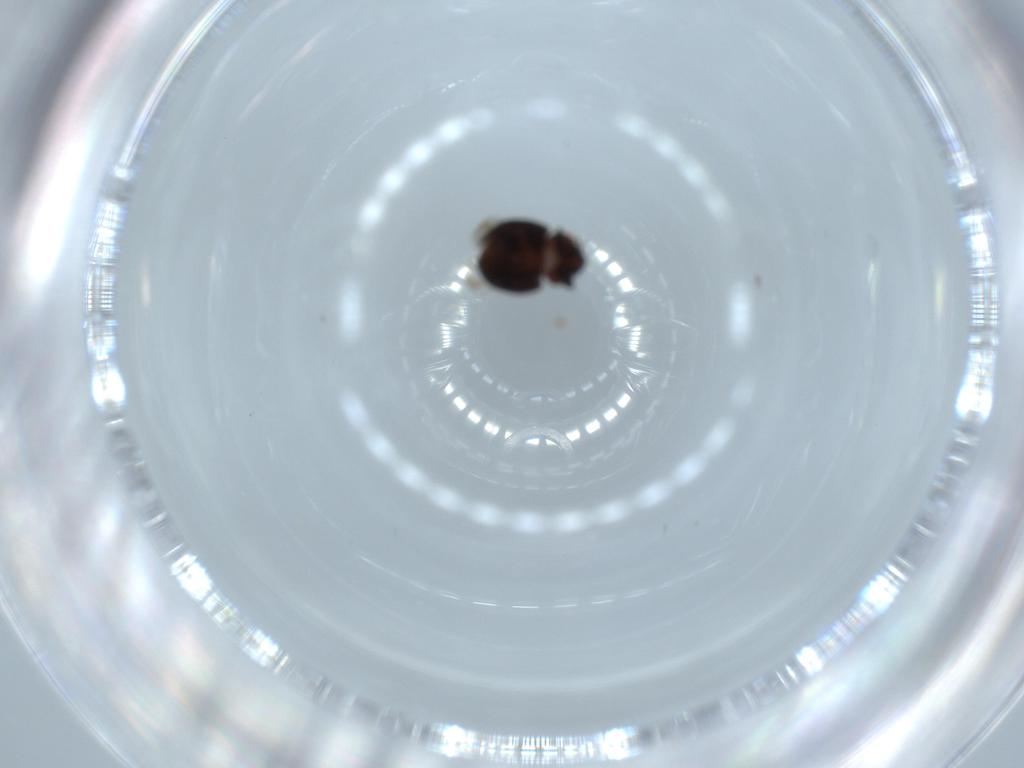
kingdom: Animalia
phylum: Arthropoda
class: Insecta
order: Coleoptera
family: Coccinellidae
